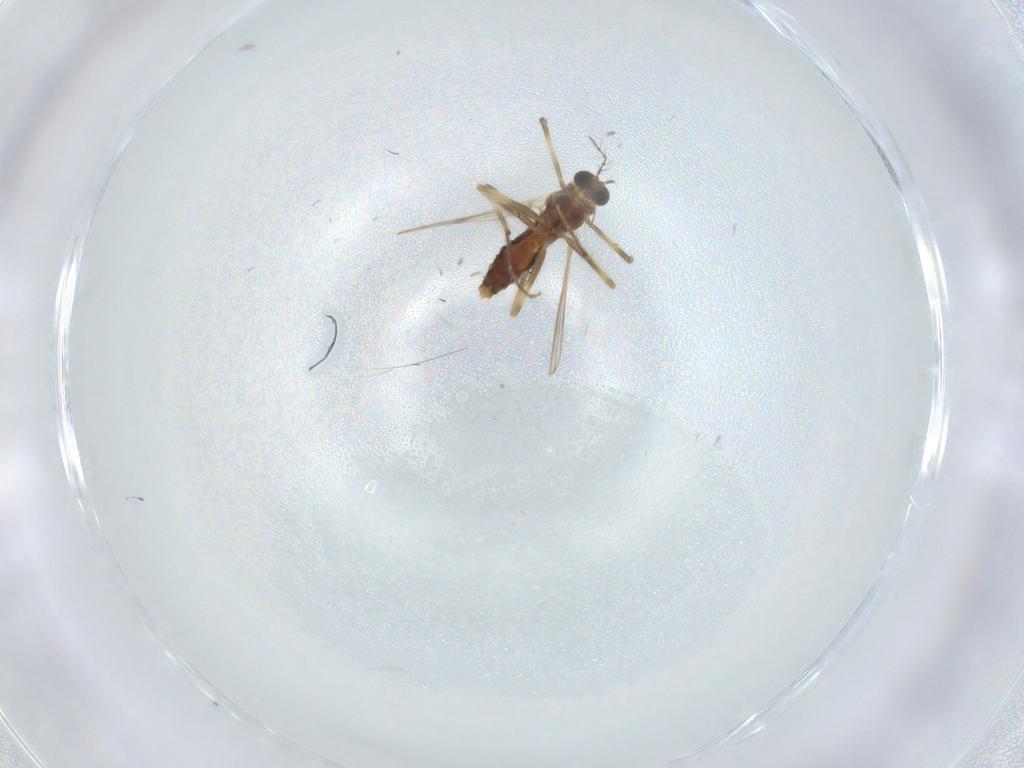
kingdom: Animalia
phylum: Arthropoda
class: Insecta
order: Diptera
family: Chironomidae
